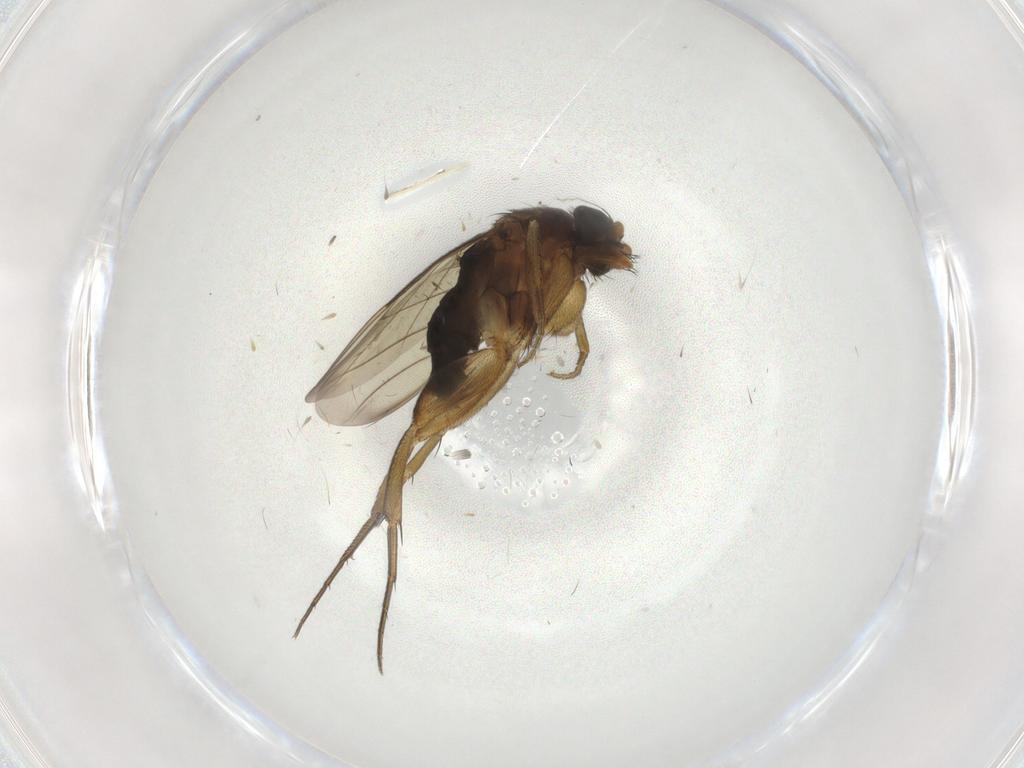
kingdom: Animalia
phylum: Arthropoda
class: Insecta
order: Diptera
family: Phoridae
